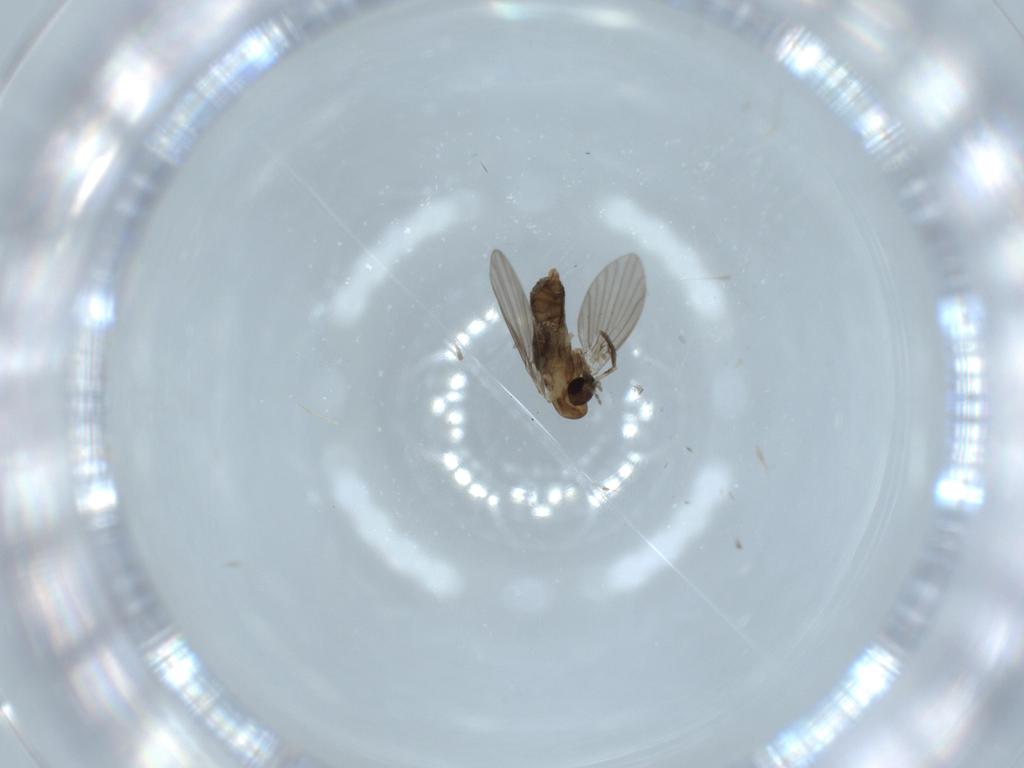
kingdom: Animalia
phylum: Arthropoda
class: Insecta
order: Diptera
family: Psychodidae
